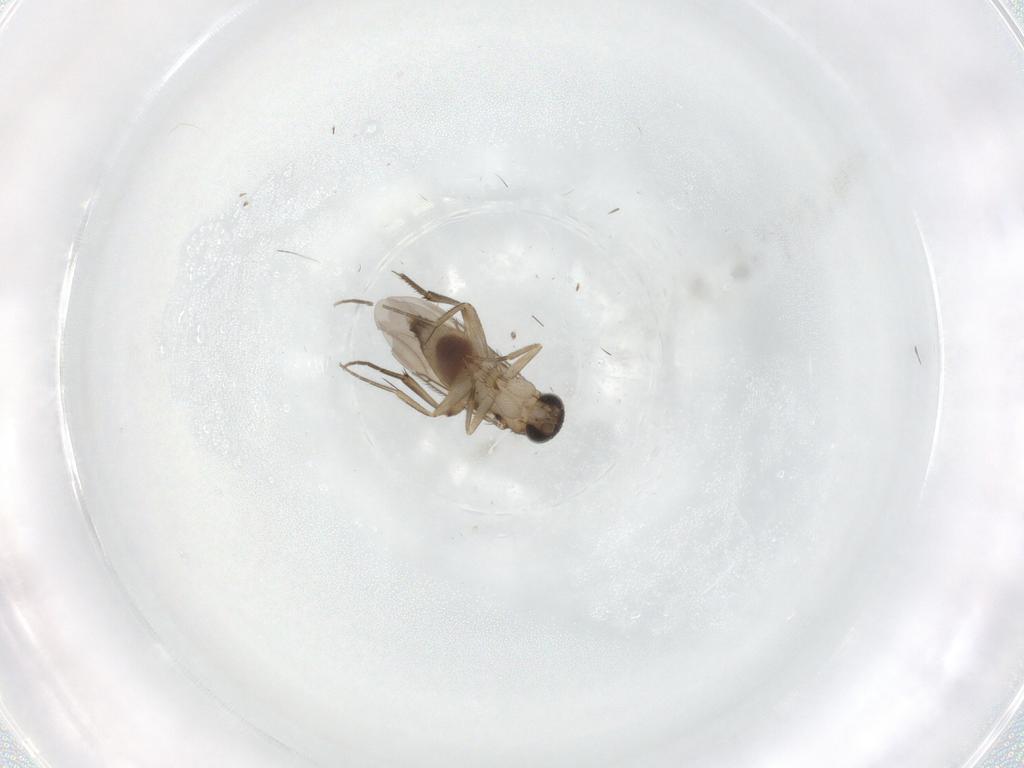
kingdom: Animalia
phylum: Arthropoda
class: Insecta
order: Diptera
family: Phoridae
